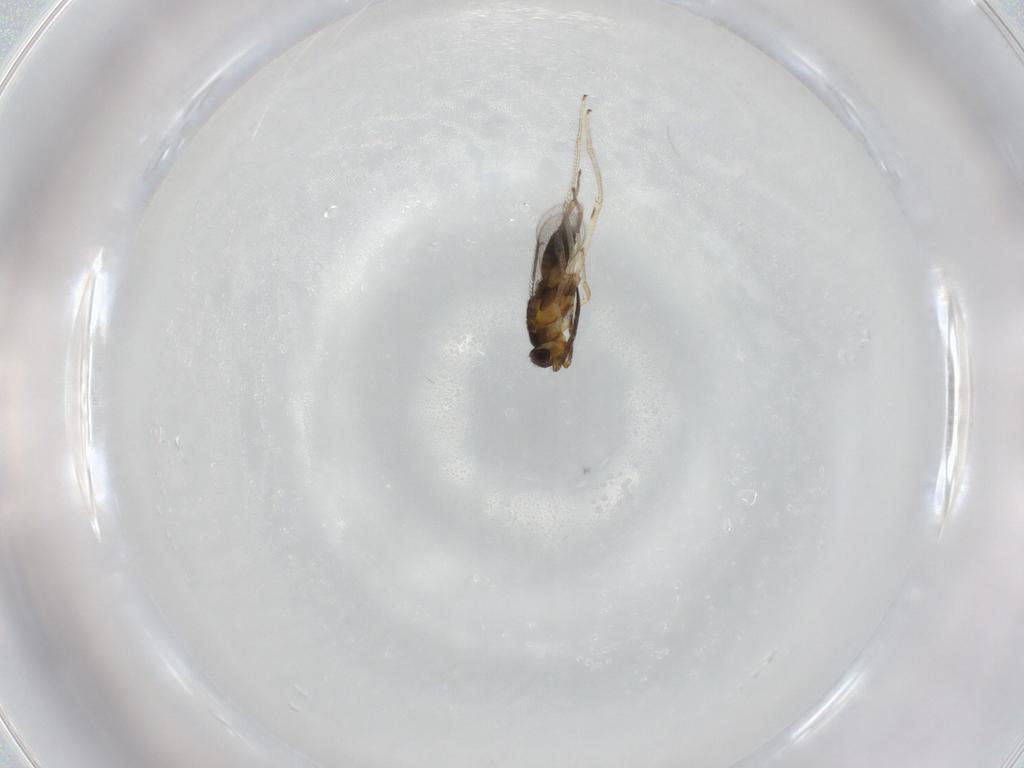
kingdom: Animalia
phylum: Arthropoda
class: Insecta
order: Hymenoptera
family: Aphelinidae
